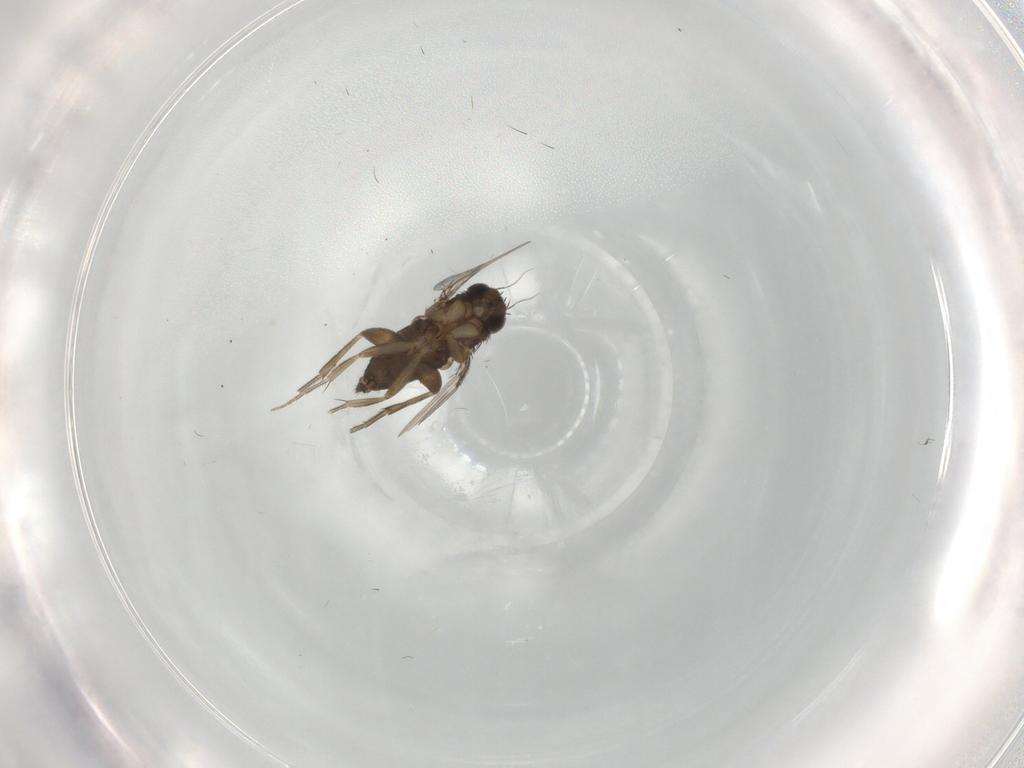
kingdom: Animalia
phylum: Arthropoda
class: Insecta
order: Diptera
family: Phoridae
